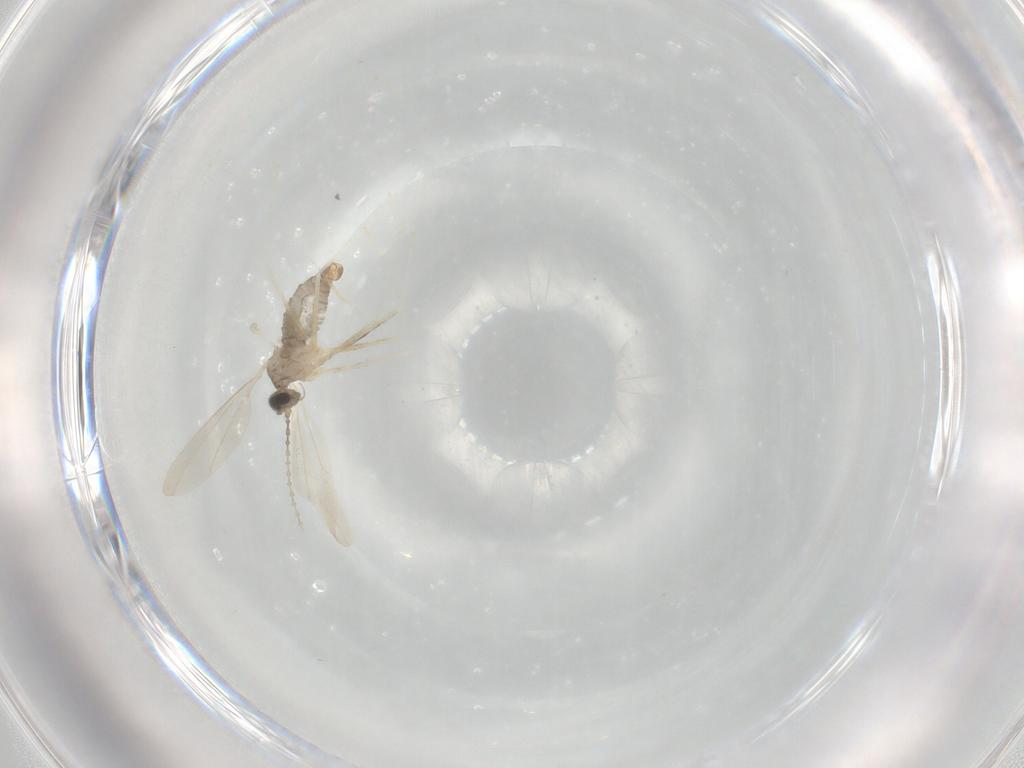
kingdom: Animalia
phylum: Arthropoda
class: Insecta
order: Diptera
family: Cecidomyiidae
